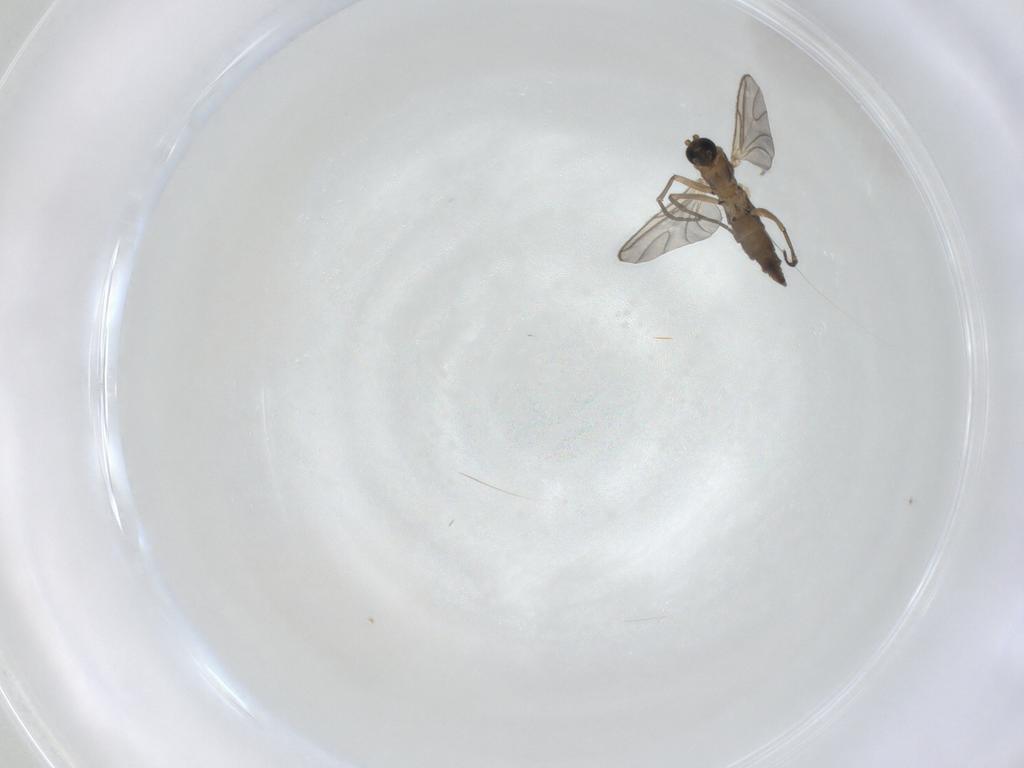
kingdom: Animalia
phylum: Arthropoda
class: Insecta
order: Diptera
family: Sciaridae
